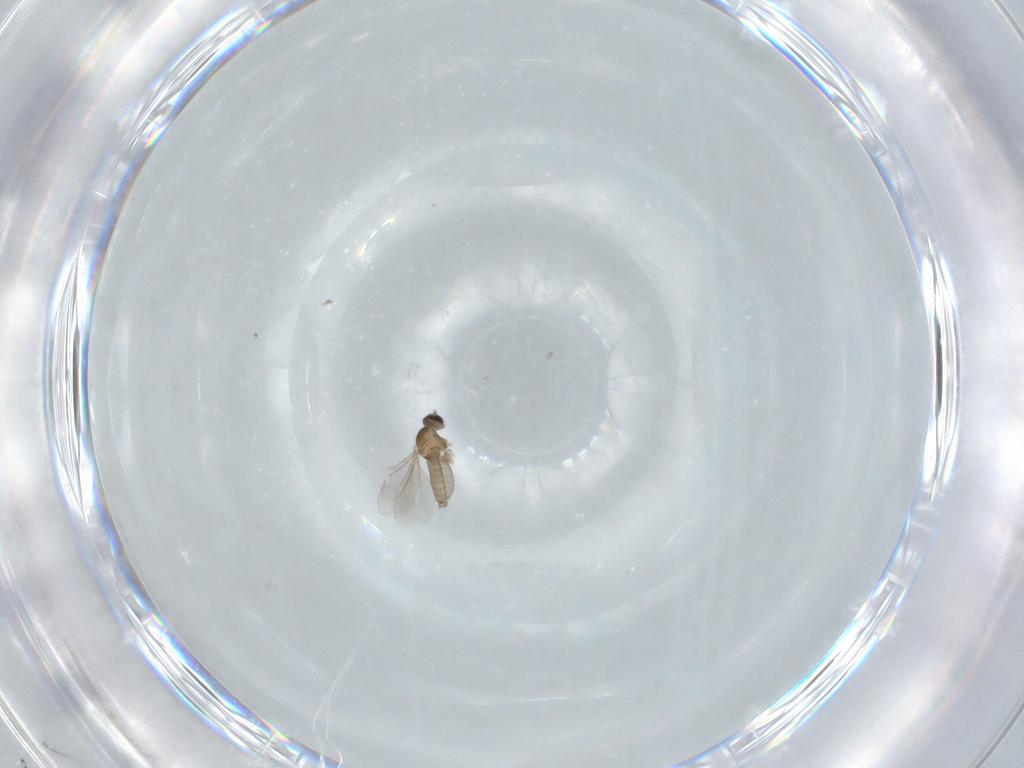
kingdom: Animalia
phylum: Arthropoda
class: Insecta
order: Diptera
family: Cecidomyiidae
